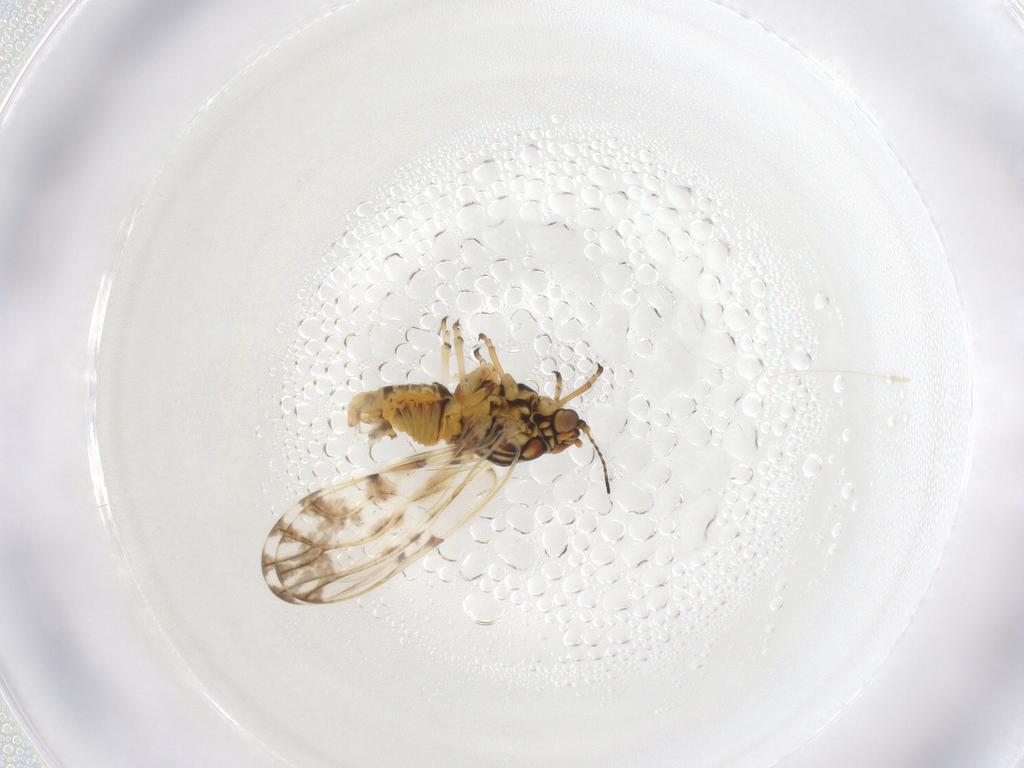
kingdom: Animalia
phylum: Arthropoda
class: Insecta
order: Hemiptera
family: Psylloidea_incertae_sedis
